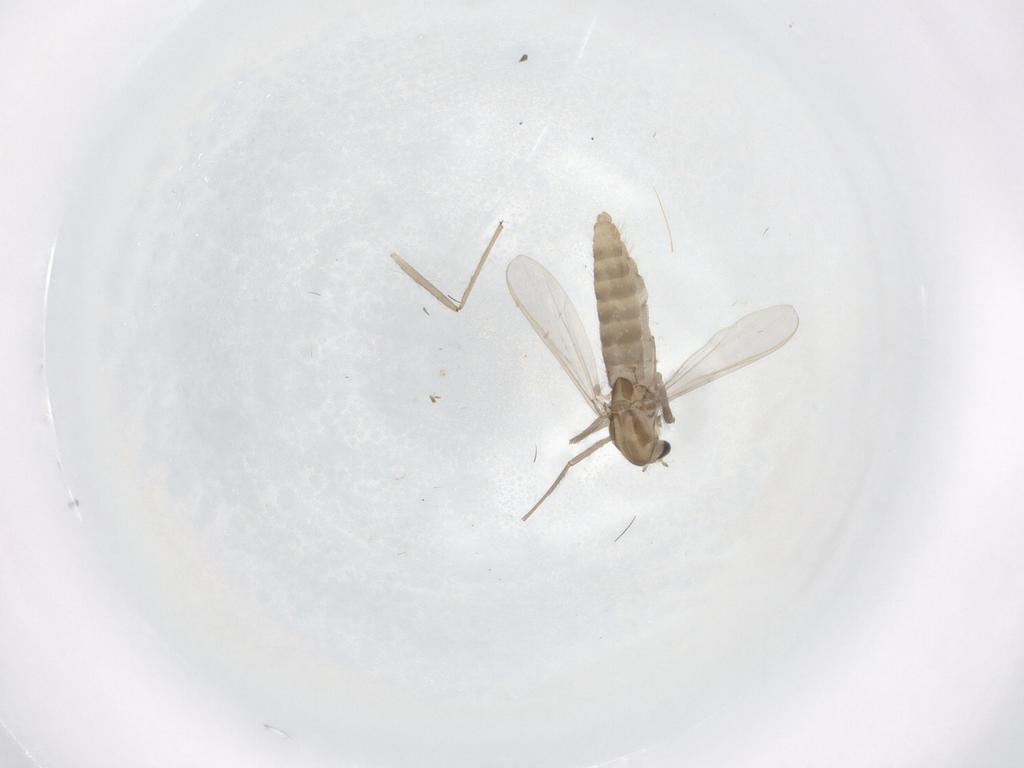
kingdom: Animalia
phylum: Arthropoda
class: Insecta
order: Diptera
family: Chironomidae
